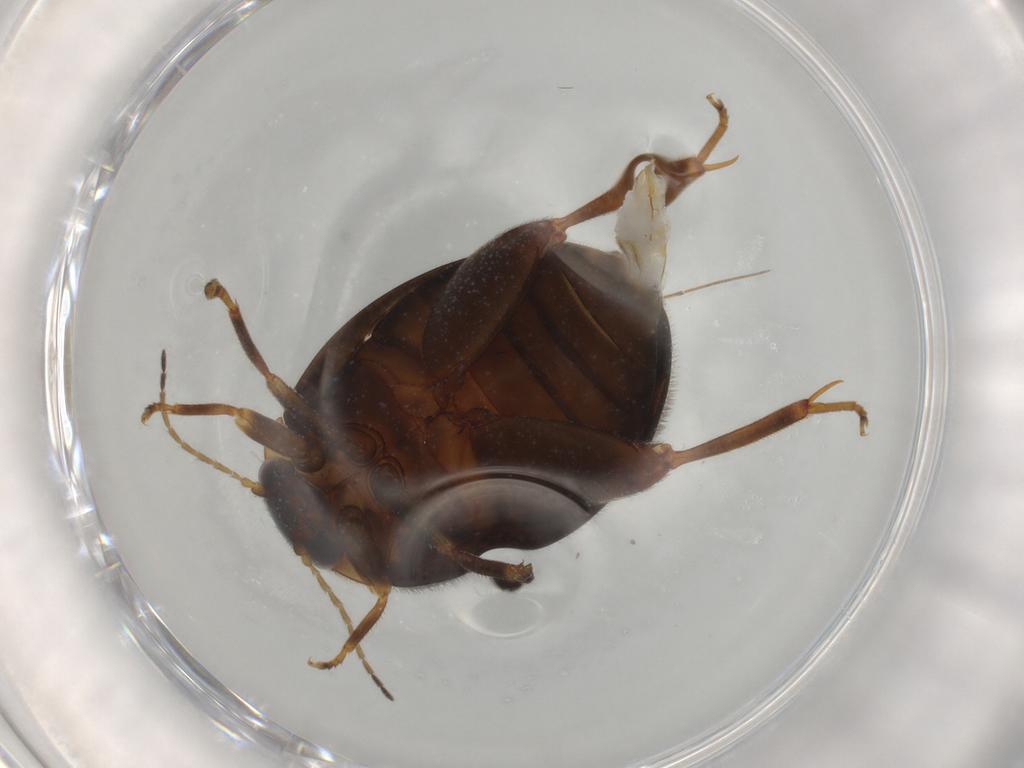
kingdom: Animalia
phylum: Arthropoda
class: Insecta
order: Coleoptera
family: Scirtidae
